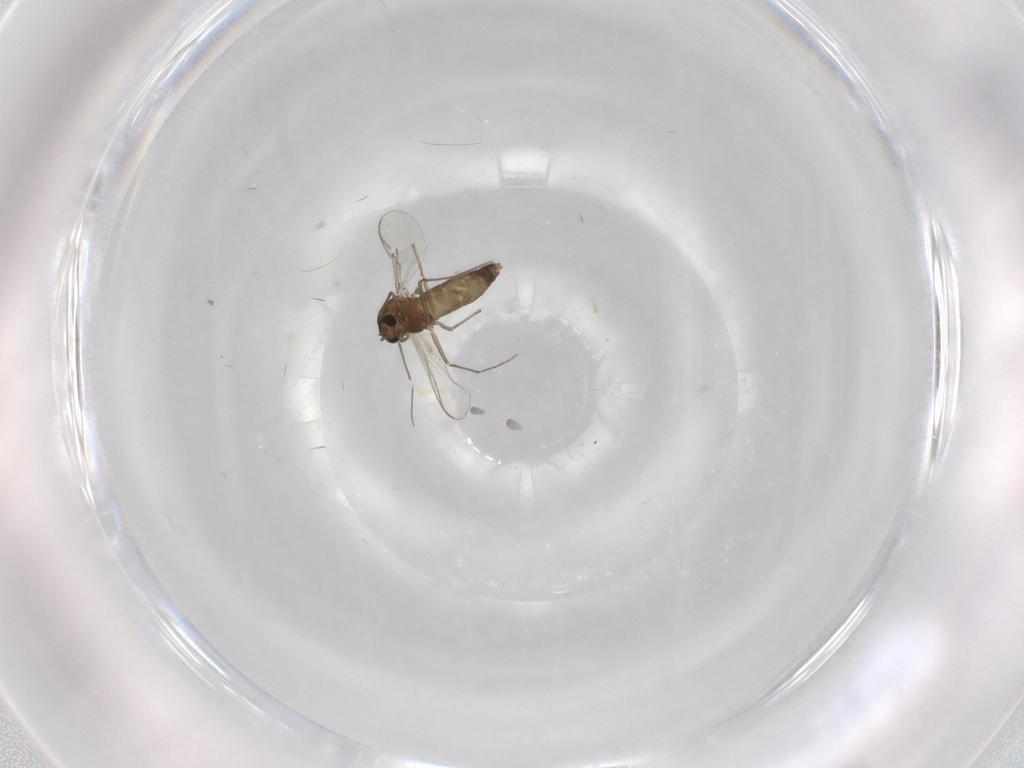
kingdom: Animalia
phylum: Arthropoda
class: Insecta
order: Diptera
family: Chironomidae
